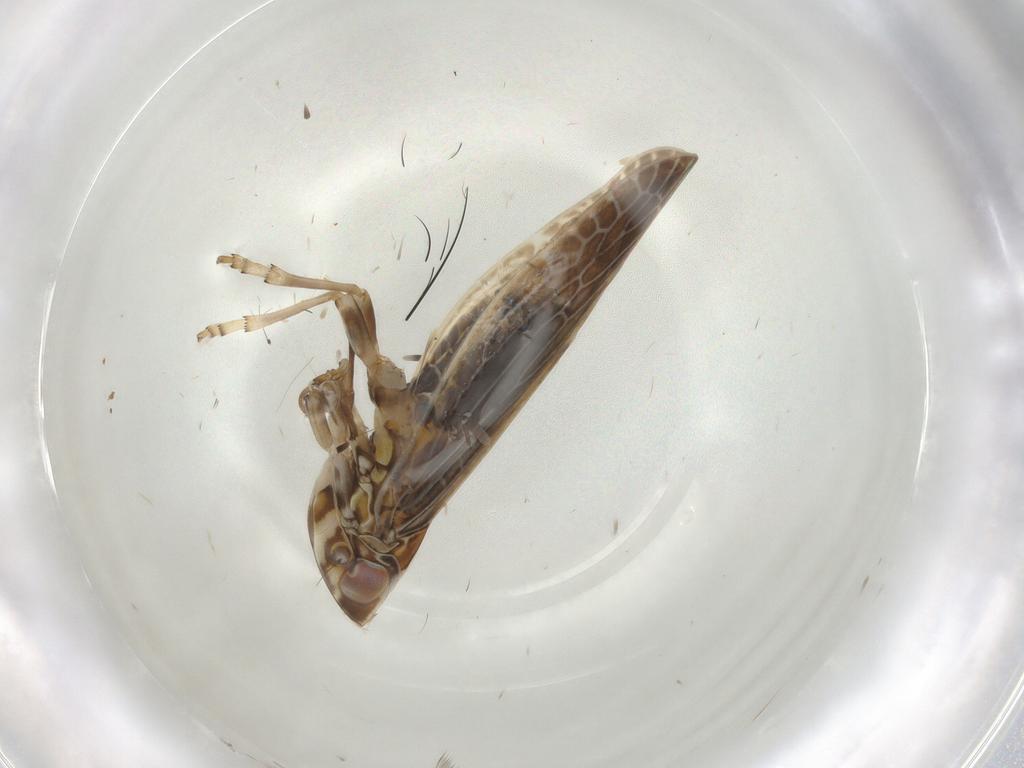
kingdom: Animalia
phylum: Arthropoda
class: Insecta
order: Hemiptera
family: Achilidae
